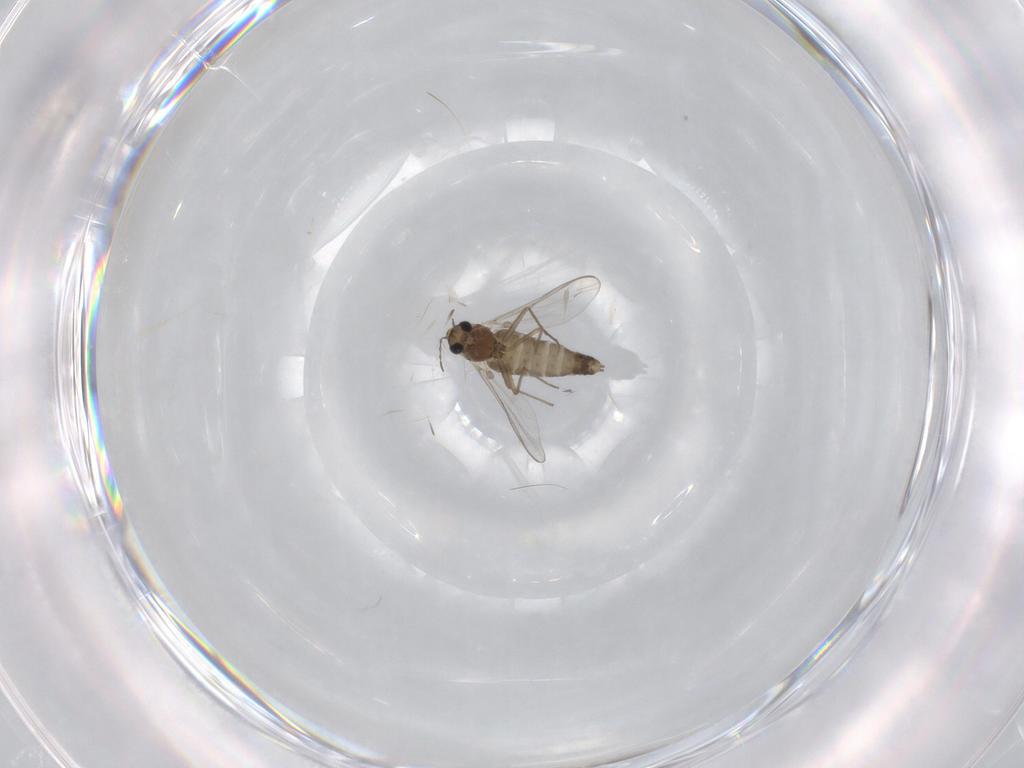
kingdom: Animalia
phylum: Arthropoda
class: Insecta
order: Diptera
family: Chironomidae
